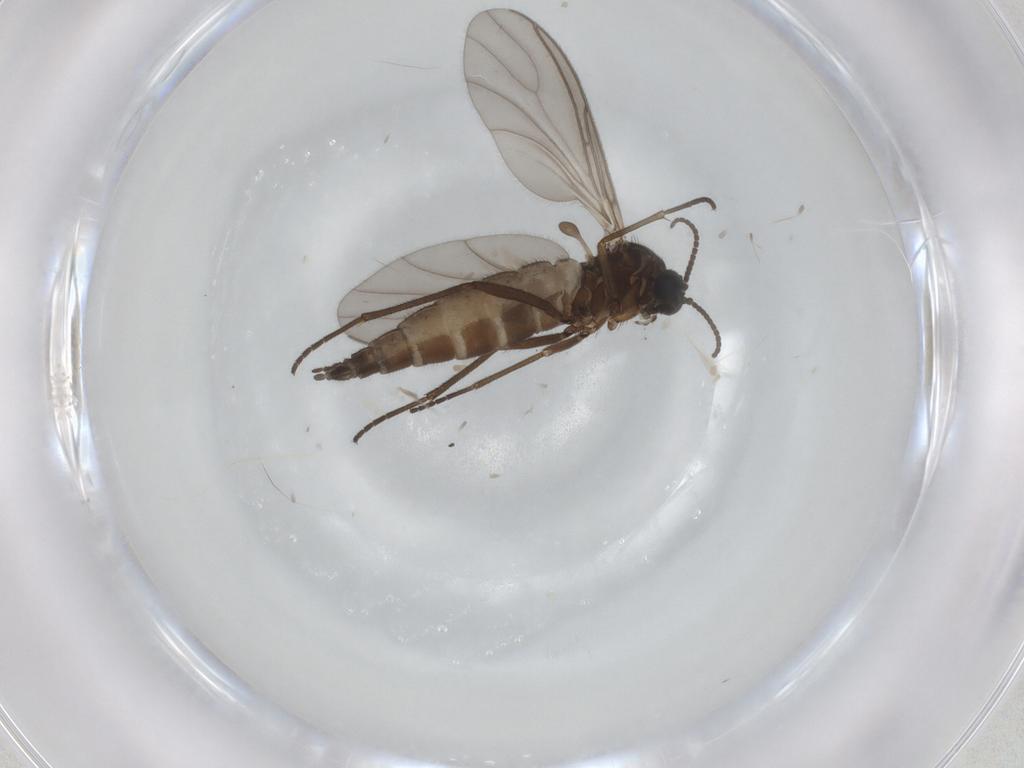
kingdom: Animalia
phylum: Arthropoda
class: Insecta
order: Diptera
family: Sciaridae
